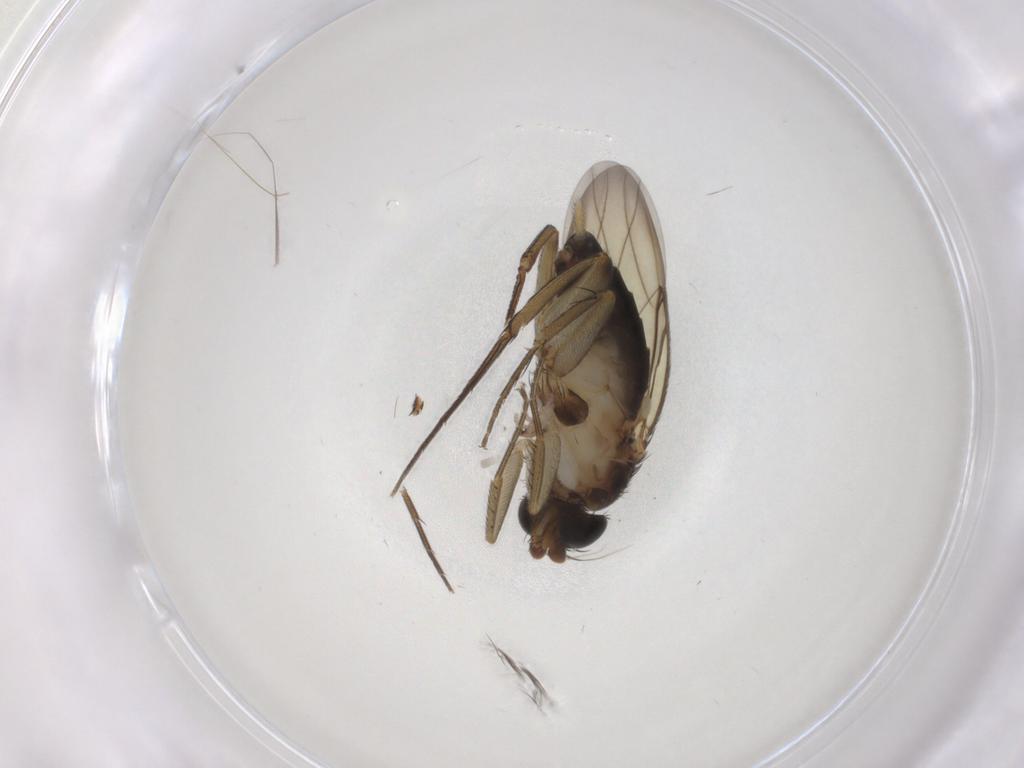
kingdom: Animalia
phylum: Arthropoda
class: Insecta
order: Diptera
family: Phoridae
